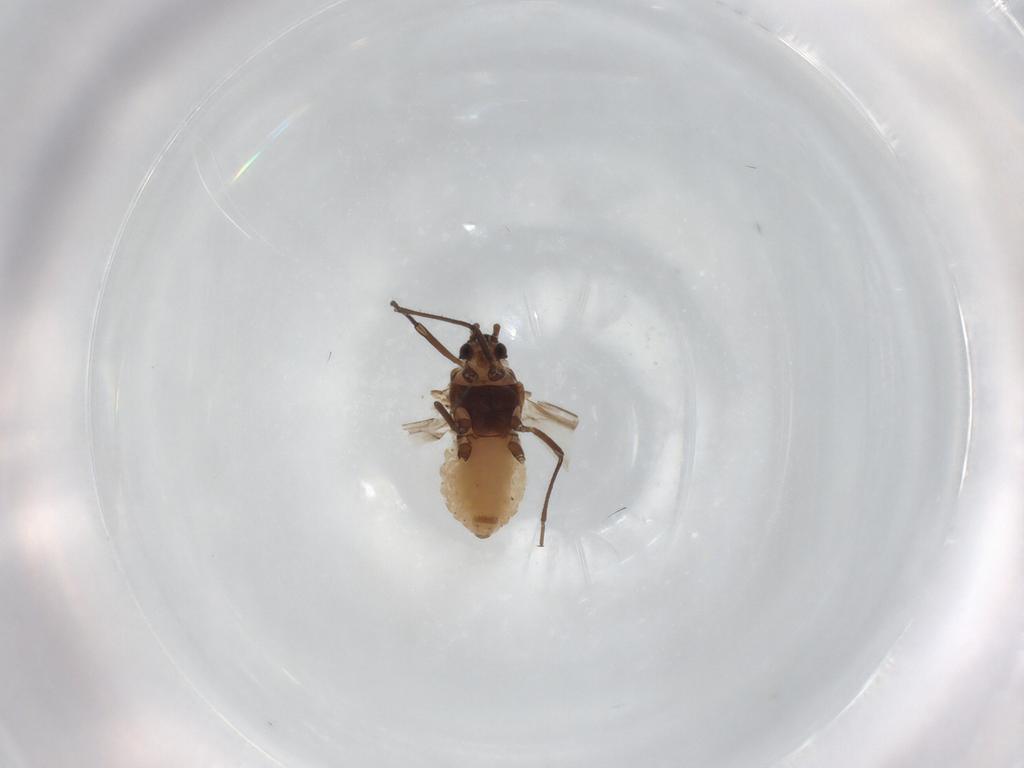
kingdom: Animalia
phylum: Arthropoda
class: Insecta
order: Hemiptera
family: Aphididae
